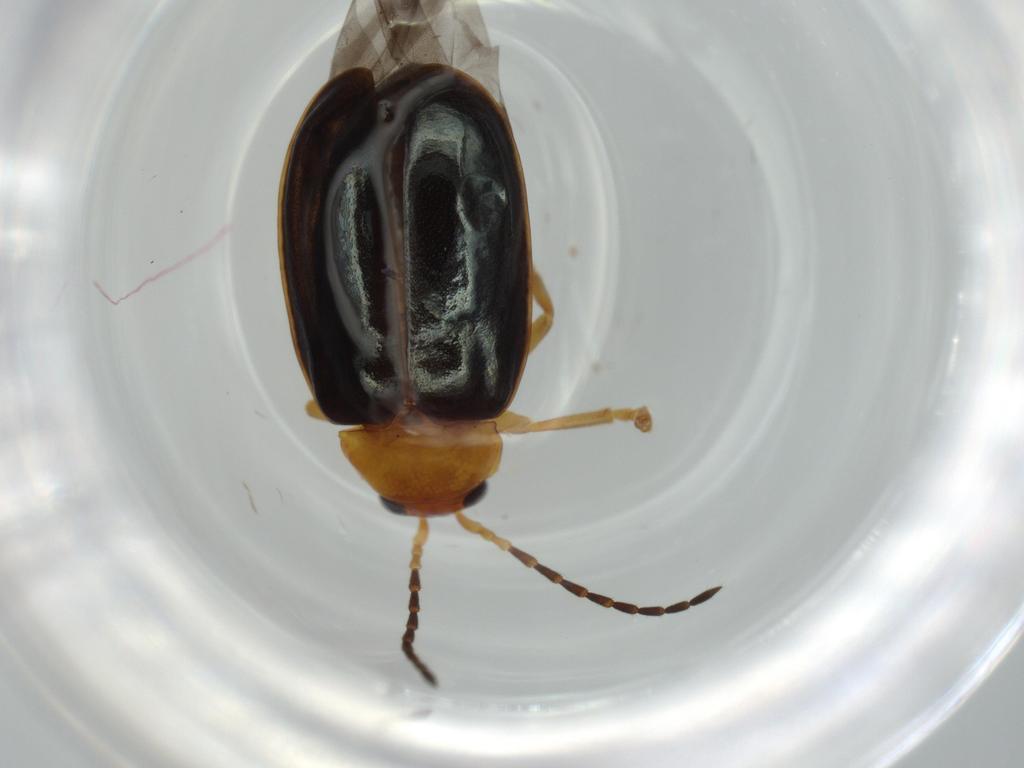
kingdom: Animalia
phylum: Arthropoda
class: Insecta
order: Coleoptera
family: Chrysomelidae
